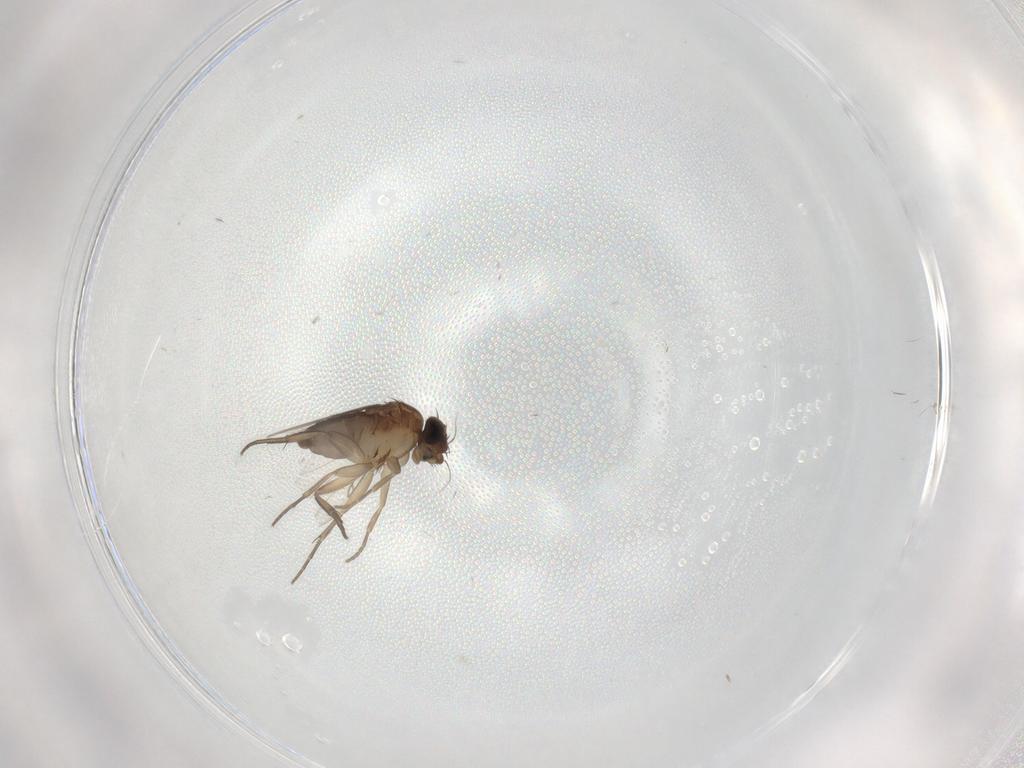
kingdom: Animalia
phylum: Arthropoda
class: Insecta
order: Diptera
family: Phoridae
